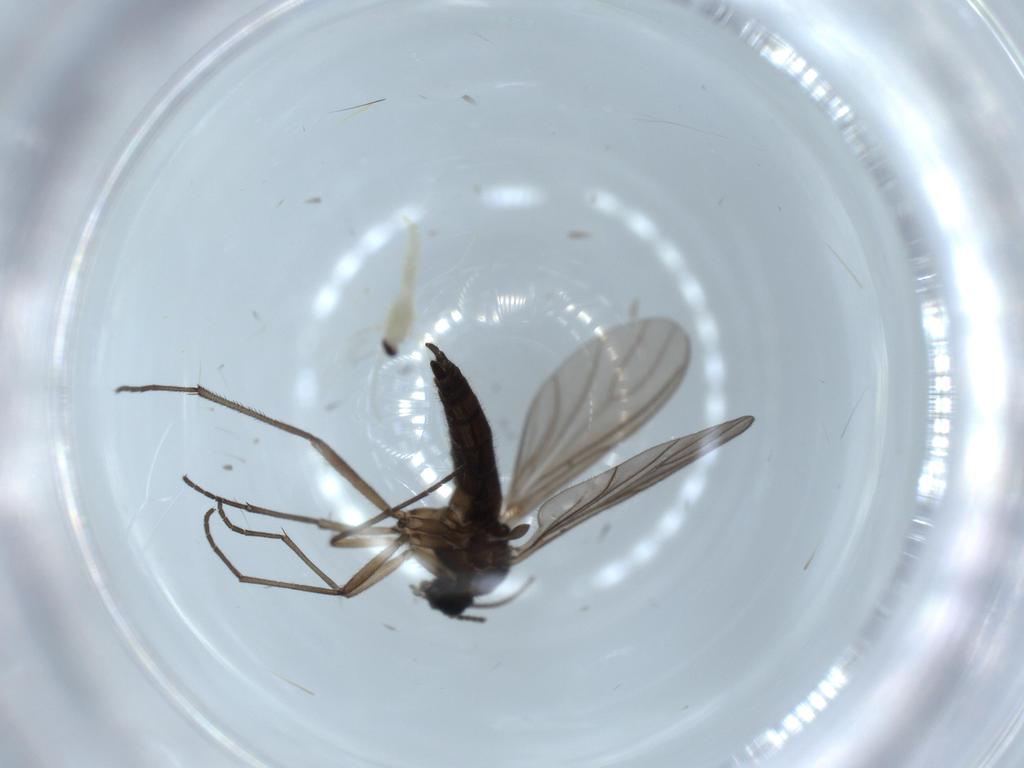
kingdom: Animalia
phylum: Arthropoda
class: Insecta
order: Diptera
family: Sciaridae
